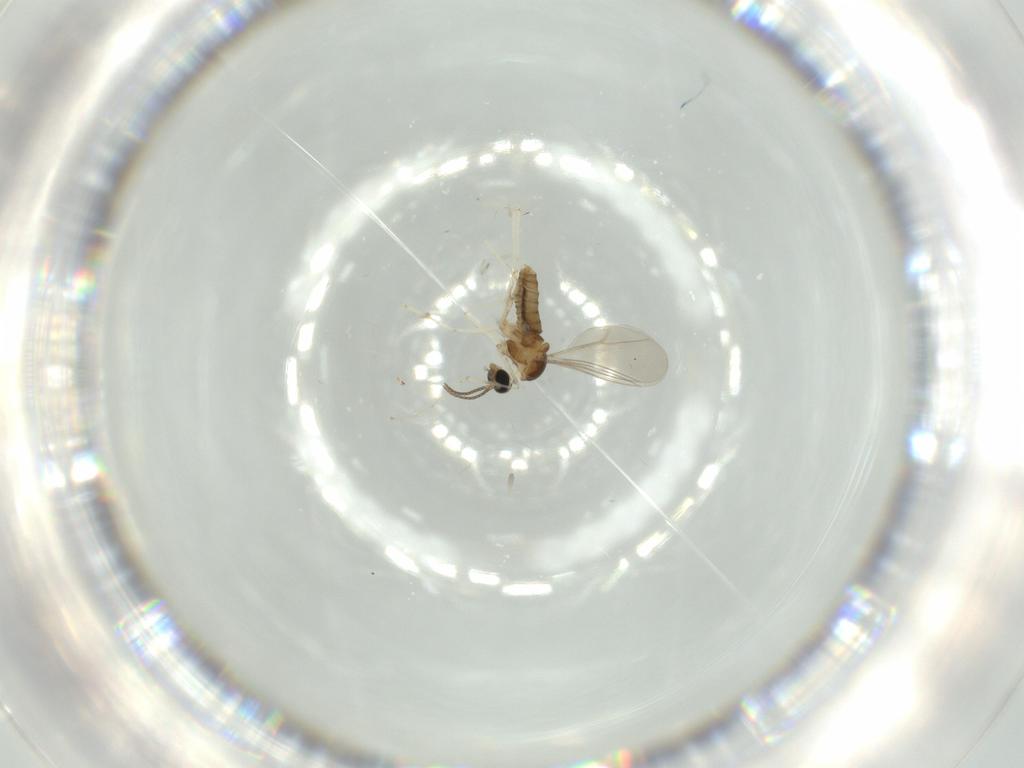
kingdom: Animalia
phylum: Arthropoda
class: Insecta
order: Diptera
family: Cecidomyiidae
